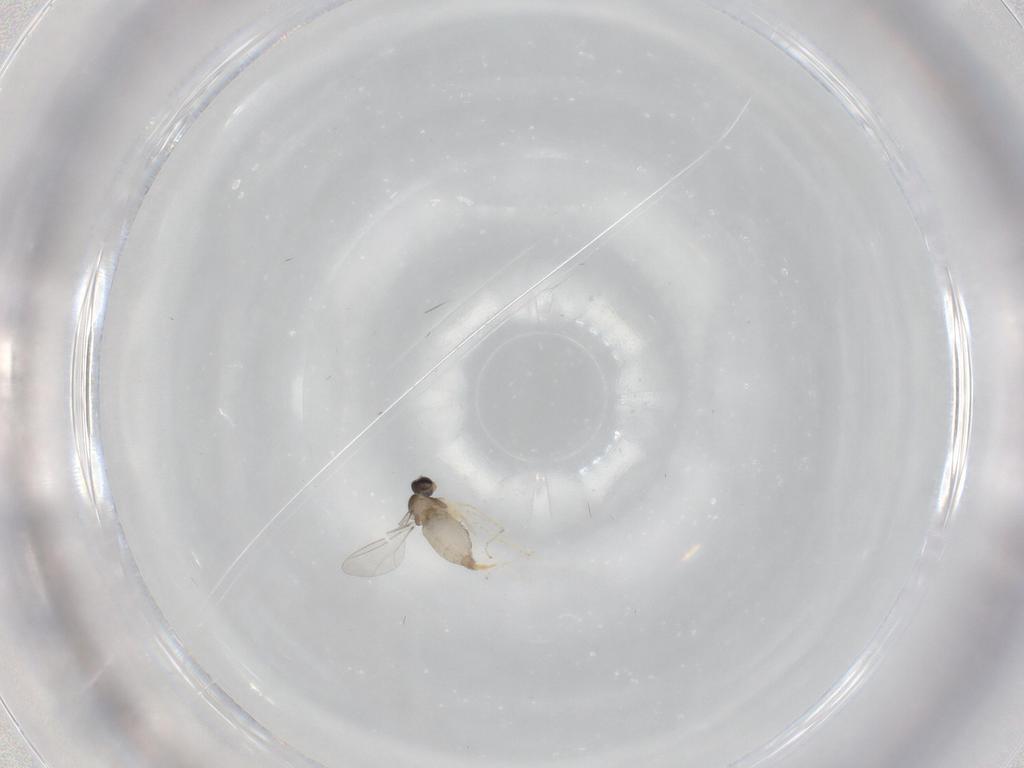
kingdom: Animalia
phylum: Arthropoda
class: Insecta
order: Diptera
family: Cecidomyiidae
